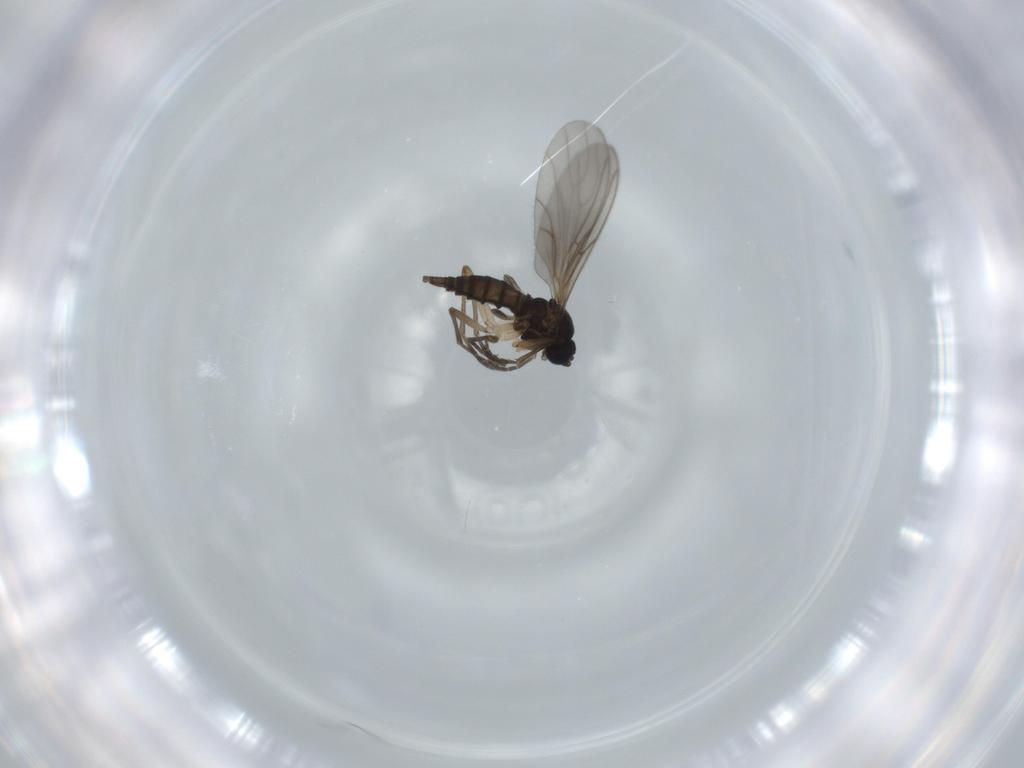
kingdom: Animalia
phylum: Arthropoda
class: Insecta
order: Diptera
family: Sciaridae
